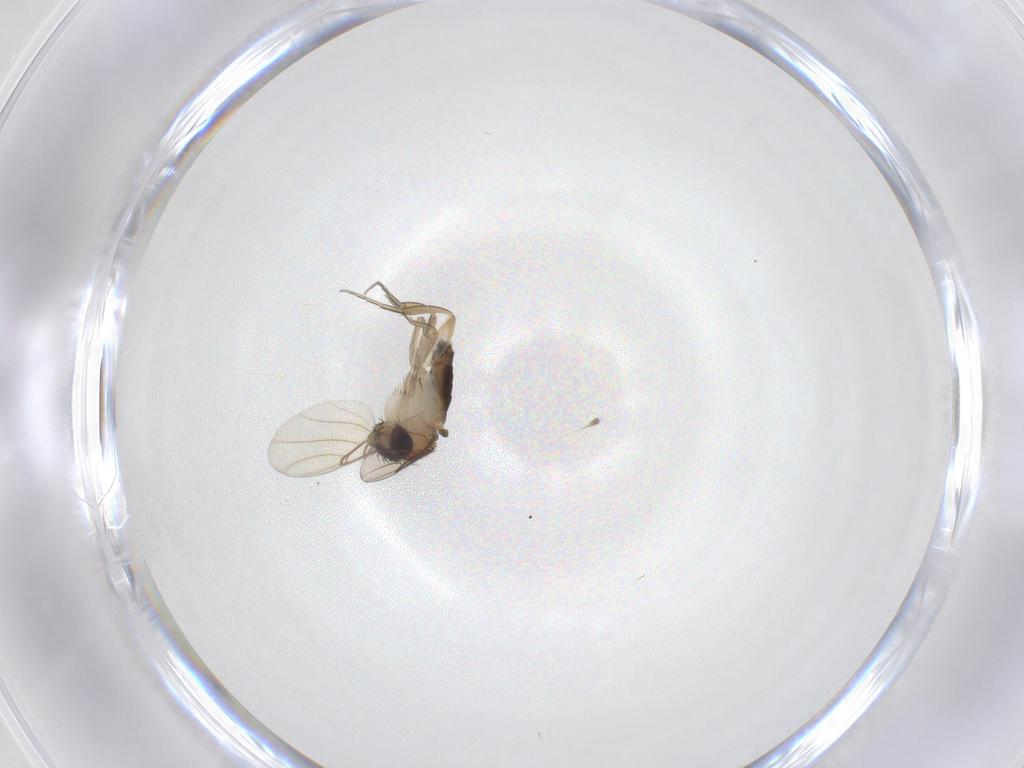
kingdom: Animalia
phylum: Arthropoda
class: Insecta
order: Diptera
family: Phoridae
